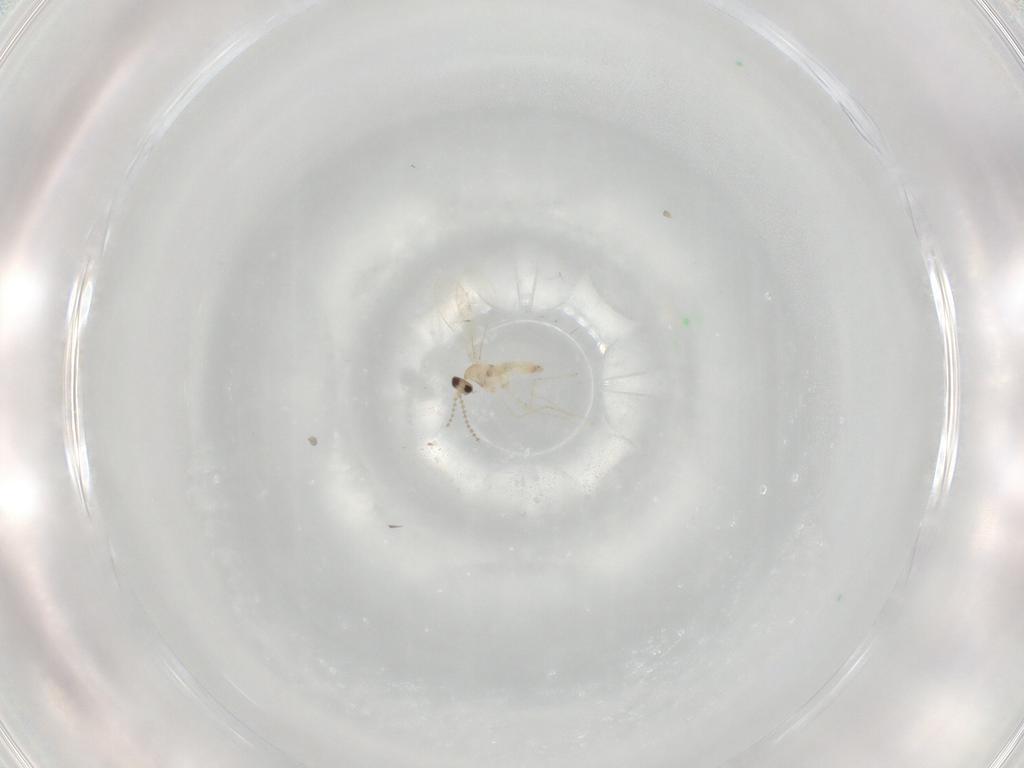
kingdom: Animalia
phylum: Arthropoda
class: Insecta
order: Diptera
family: Cecidomyiidae
